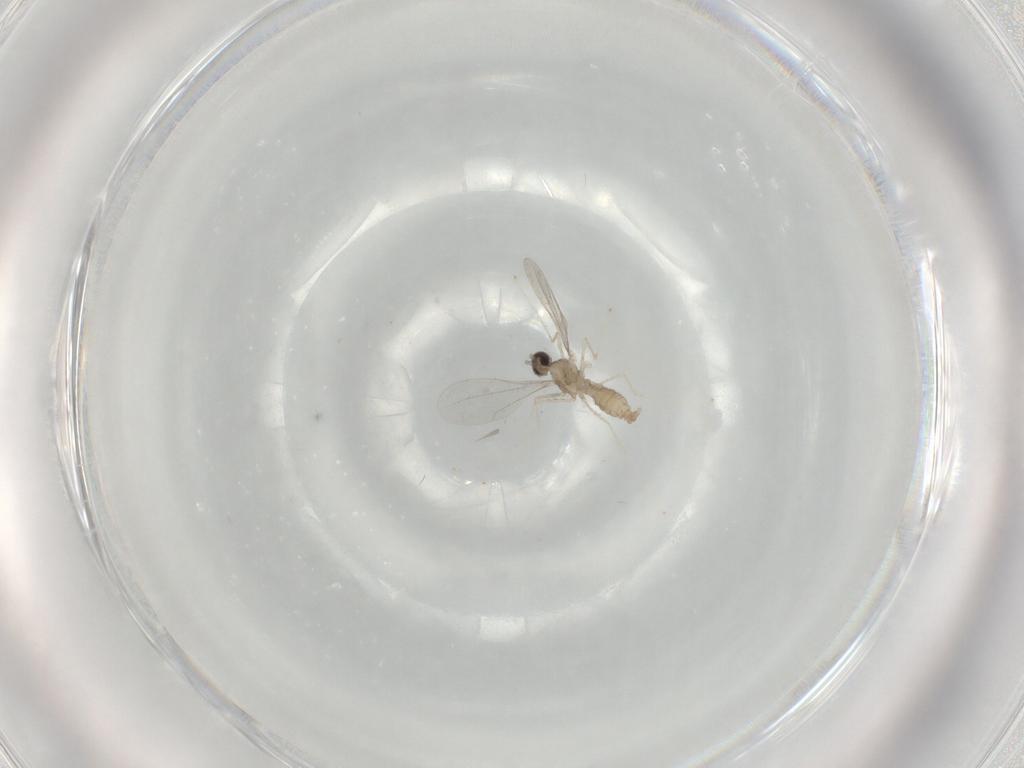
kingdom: Animalia
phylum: Arthropoda
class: Insecta
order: Diptera
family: Cecidomyiidae
